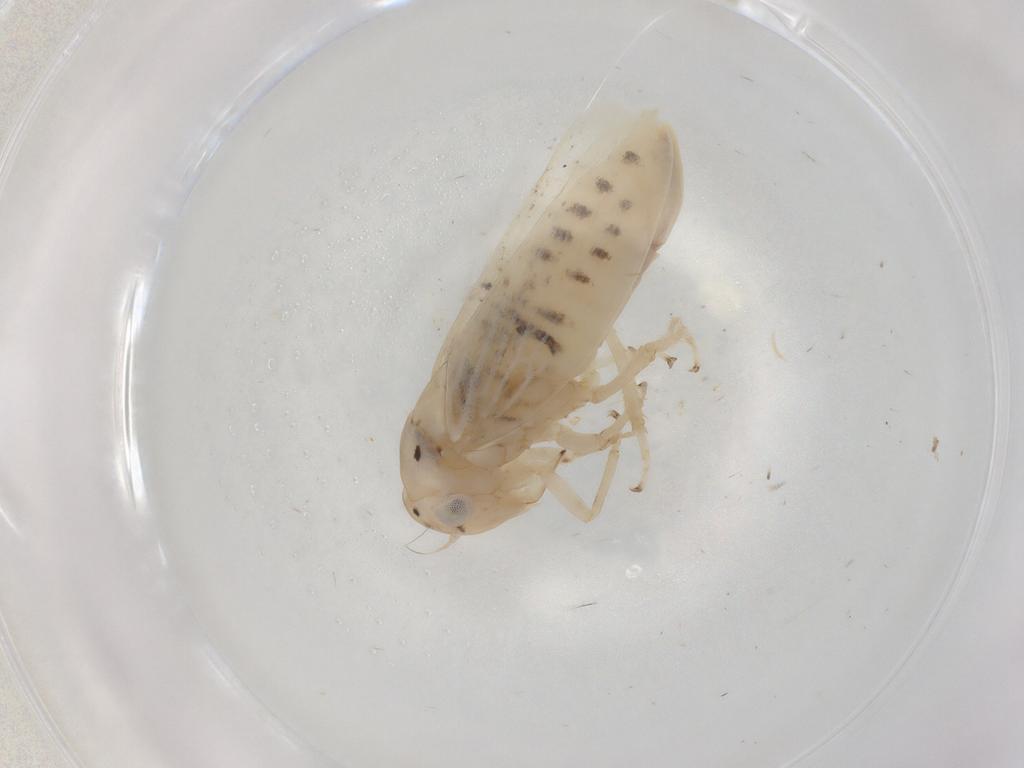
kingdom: Animalia
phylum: Arthropoda
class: Insecta
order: Hemiptera
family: Cicadellidae
